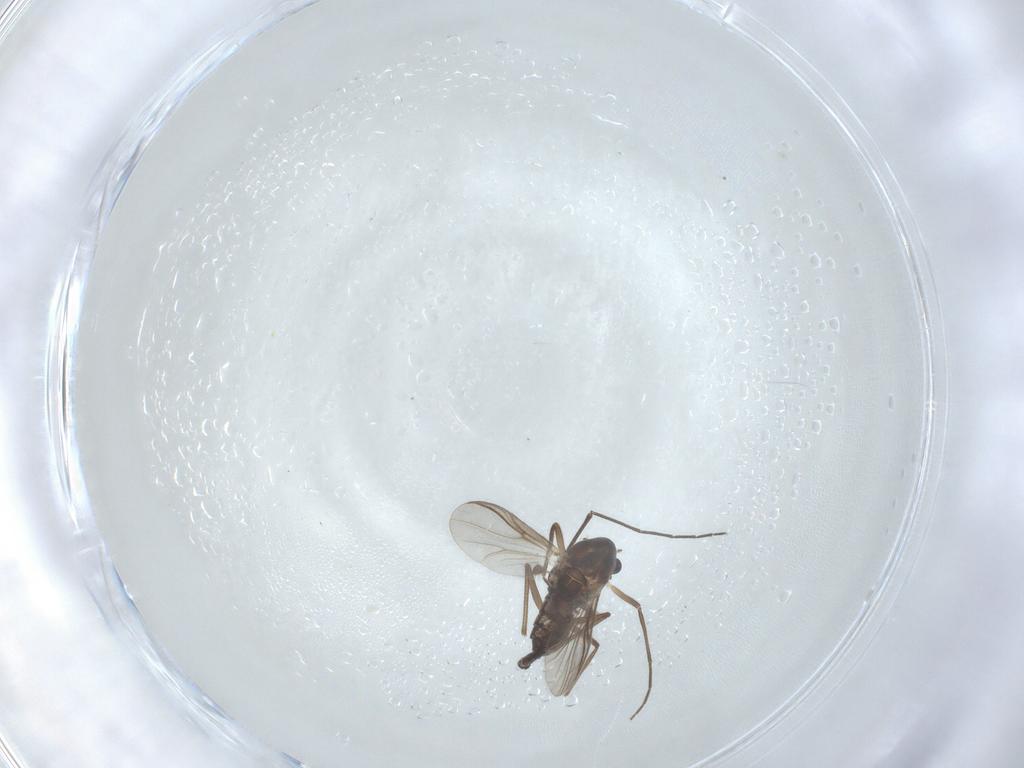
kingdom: Animalia
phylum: Arthropoda
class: Insecta
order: Diptera
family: Chironomidae
